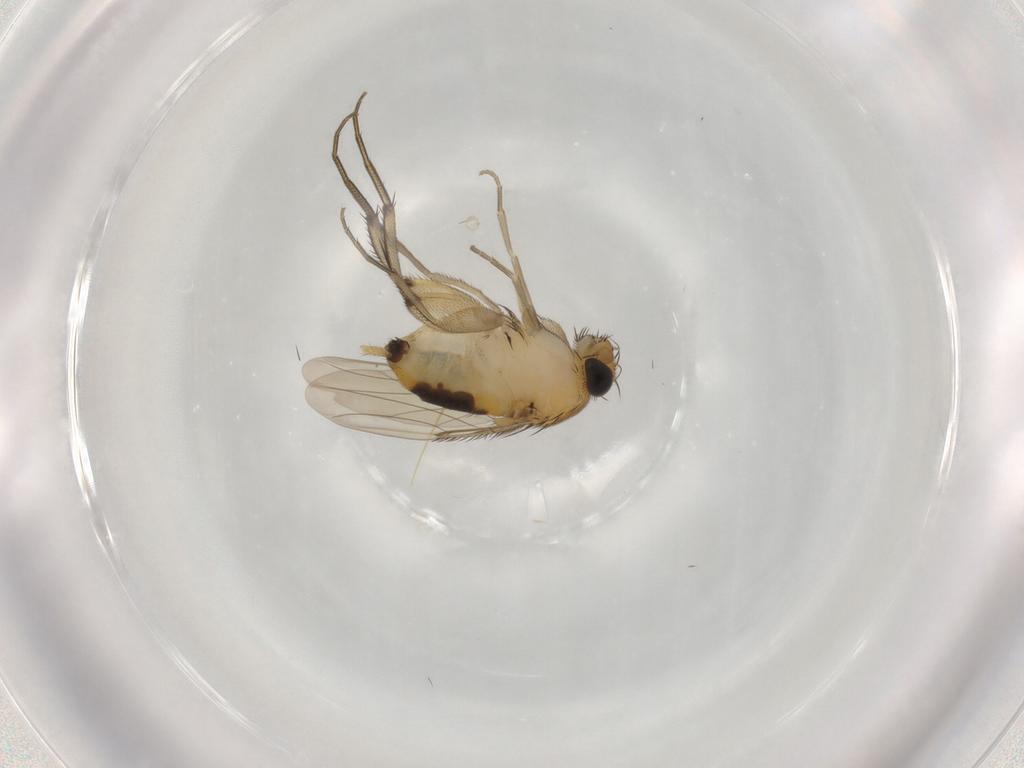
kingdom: Animalia
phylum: Arthropoda
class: Insecta
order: Diptera
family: Phoridae
